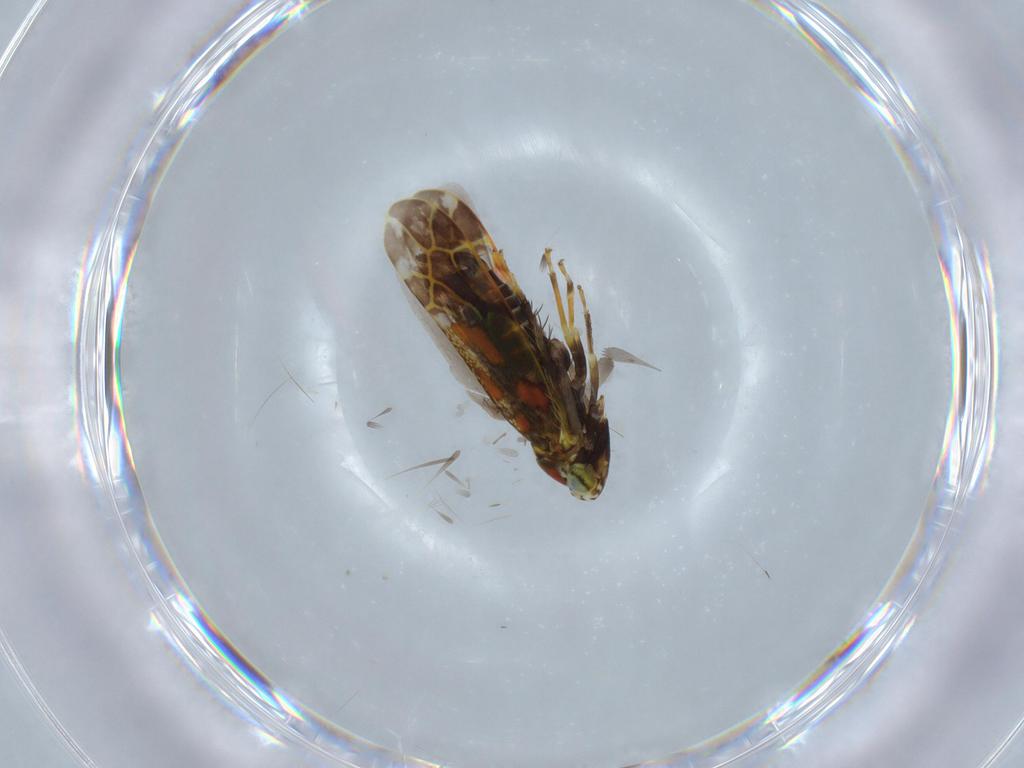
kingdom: Animalia
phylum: Arthropoda
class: Insecta
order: Hemiptera
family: Cicadellidae
